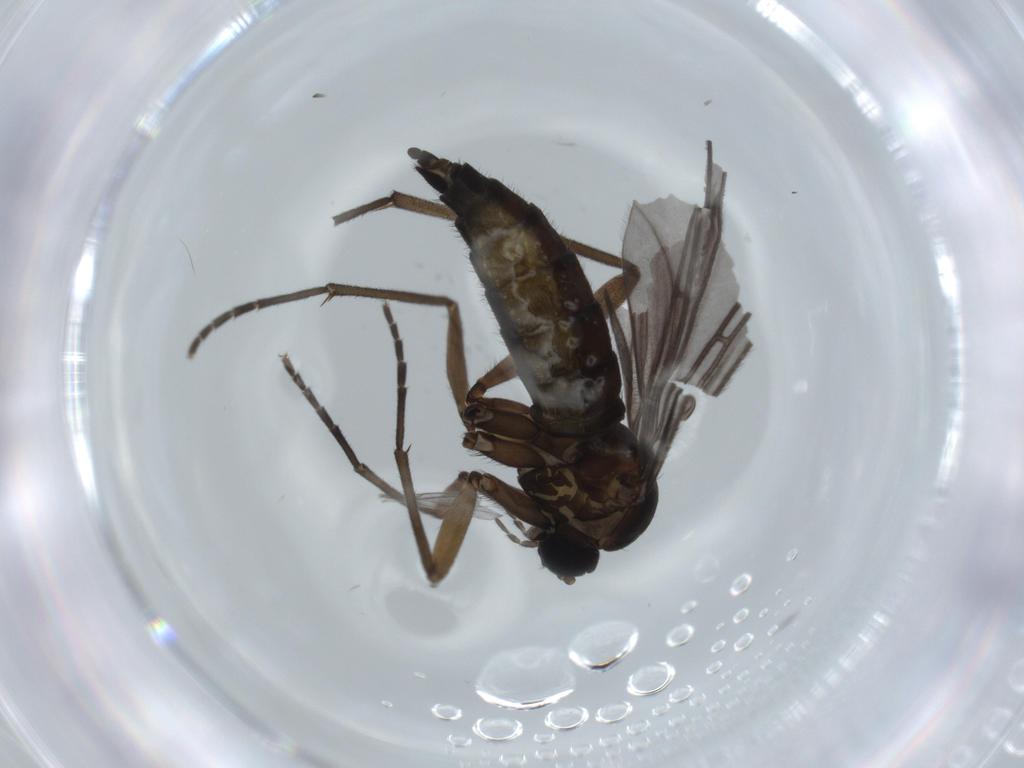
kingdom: Animalia
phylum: Arthropoda
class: Insecta
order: Diptera
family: Sciaridae
